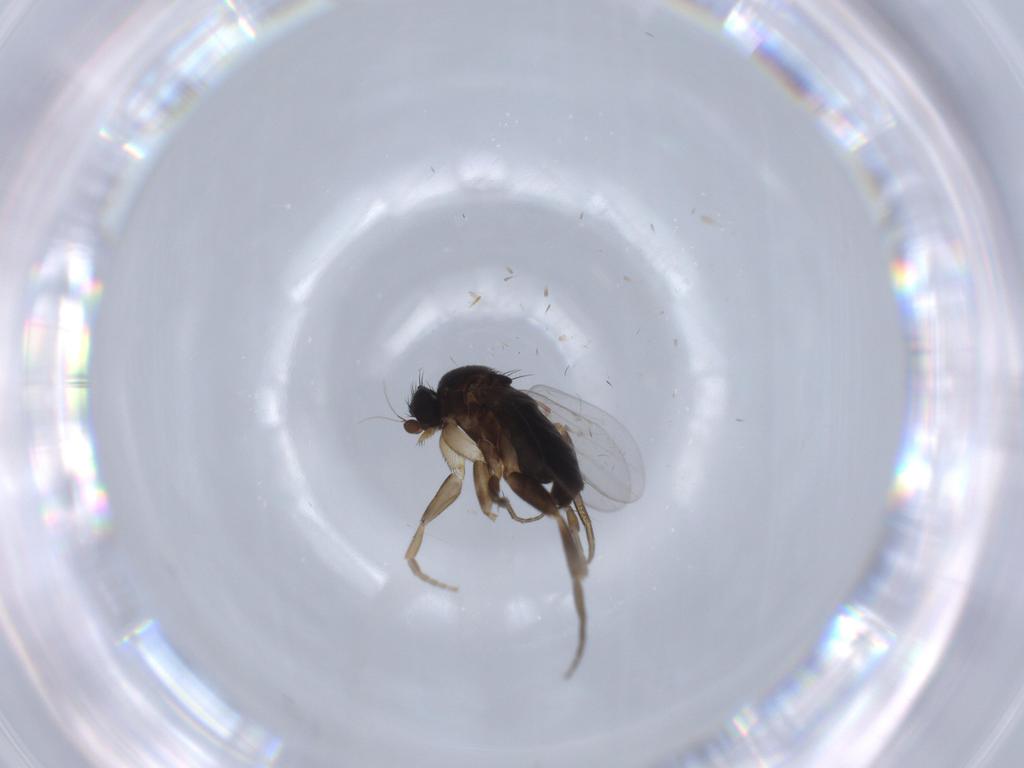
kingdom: Animalia
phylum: Arthropoda
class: Insecta
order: Diptera
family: Phoridae
